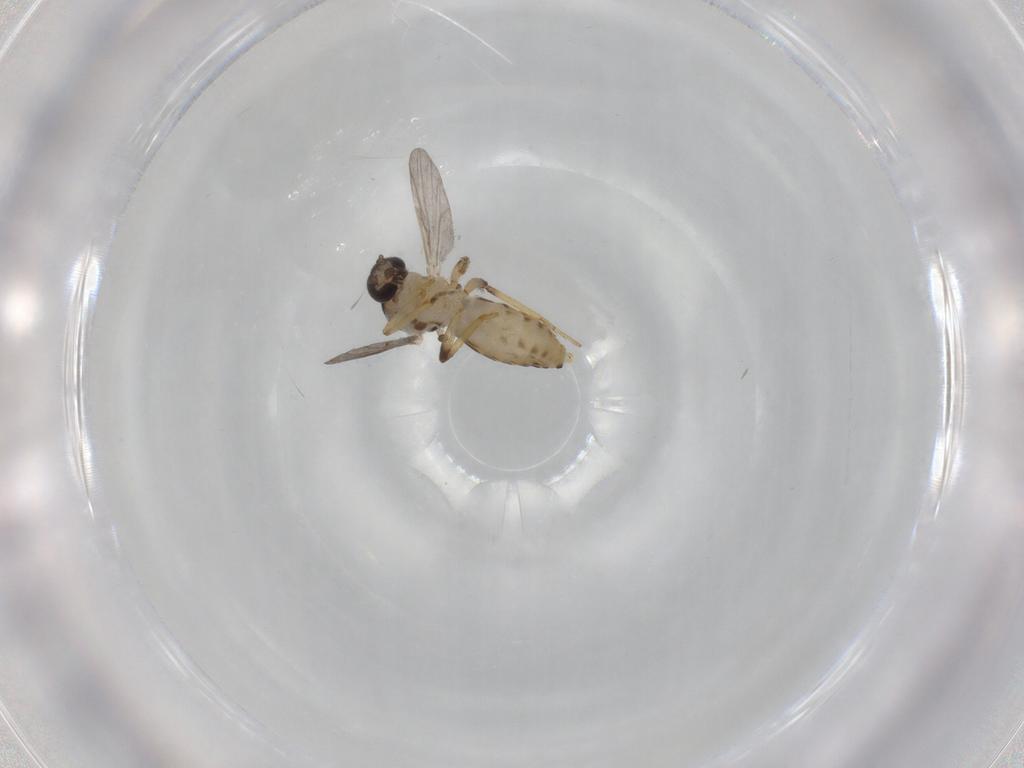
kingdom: Animalia
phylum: Arthropoda
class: Insecta
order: Diptera
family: Cecidomyiidae
